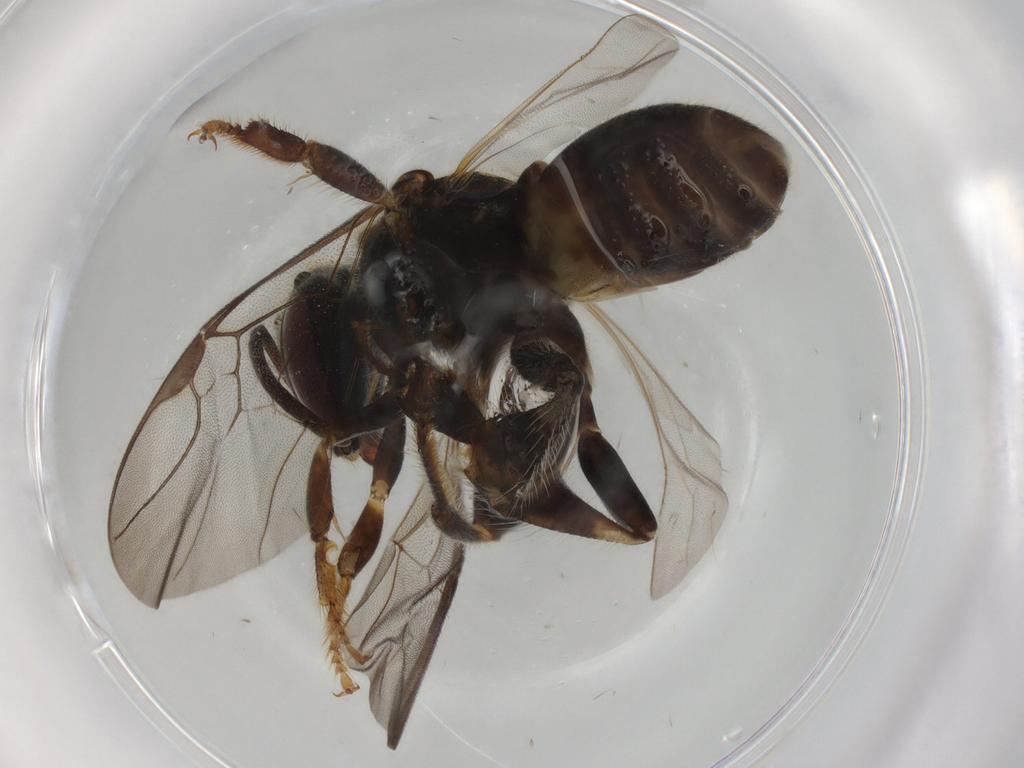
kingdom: Animalia
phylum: Arthropoda
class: Insecta
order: Hymenoptera
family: Apidae
